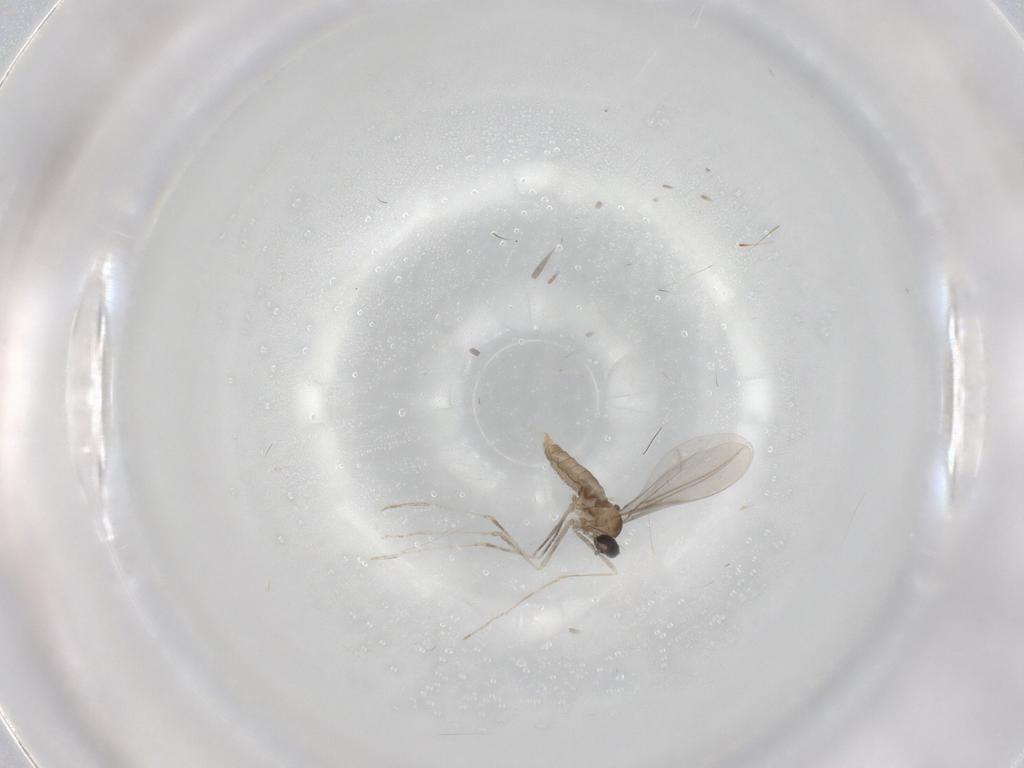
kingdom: Animalia
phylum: Arthropoda
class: Insecta
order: Diptera
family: Cecidomyiidae
